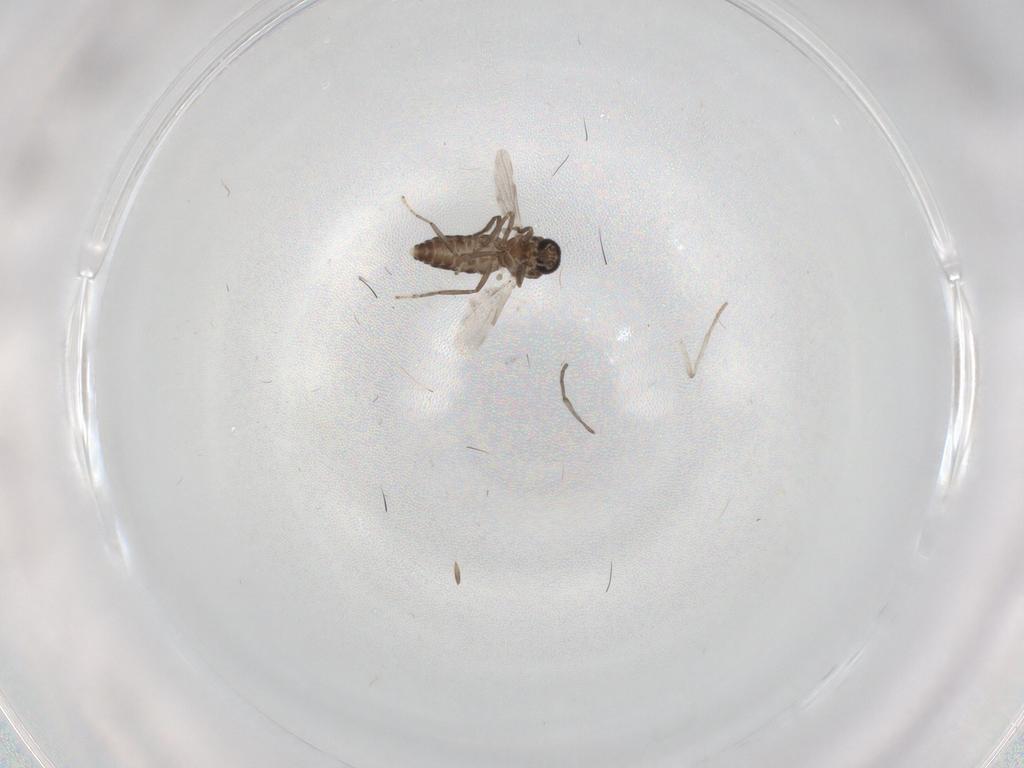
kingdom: Animalia
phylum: Arthropoda
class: Insecta
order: Diptera
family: Ceratopogonidae
